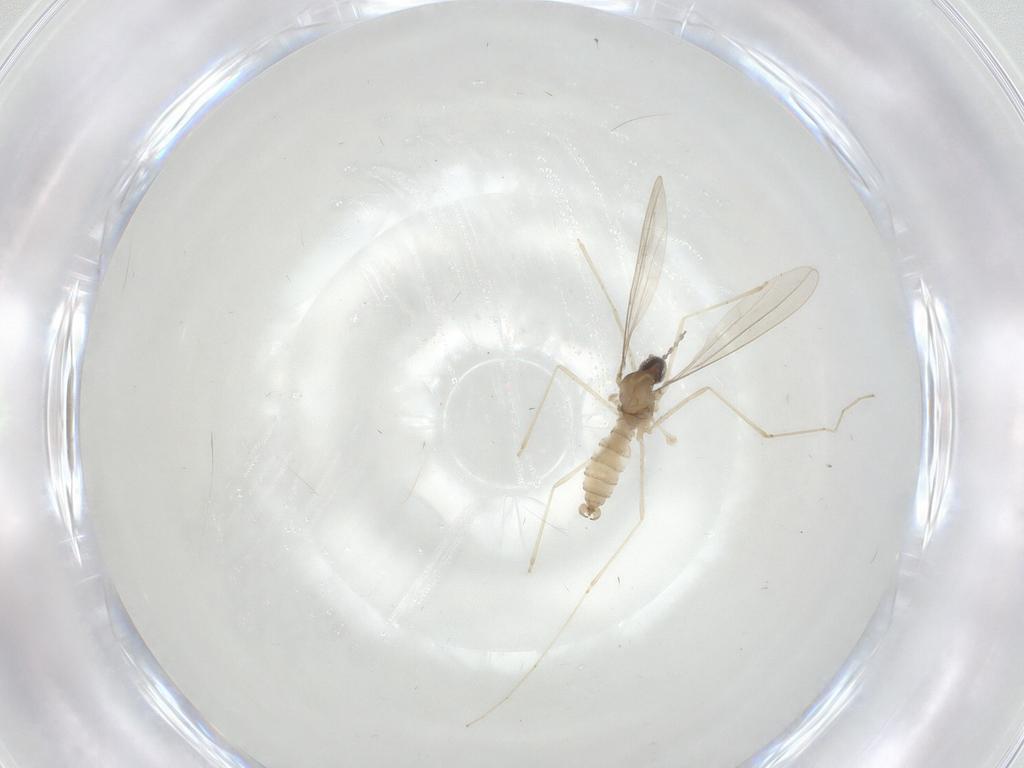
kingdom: Animalia
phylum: Arthropoda
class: Insecta
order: Diptera
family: Cecidomyiidae
